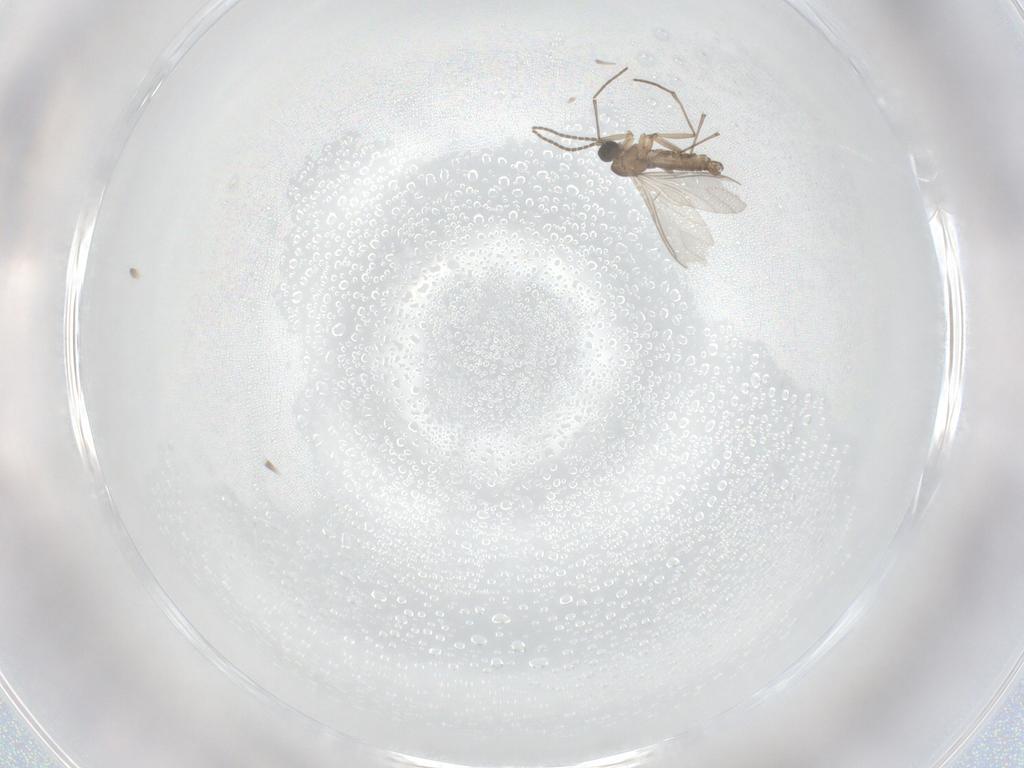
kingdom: Animalia
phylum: Arthropoda
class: Insecta
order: Diptera
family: Sciaridae
